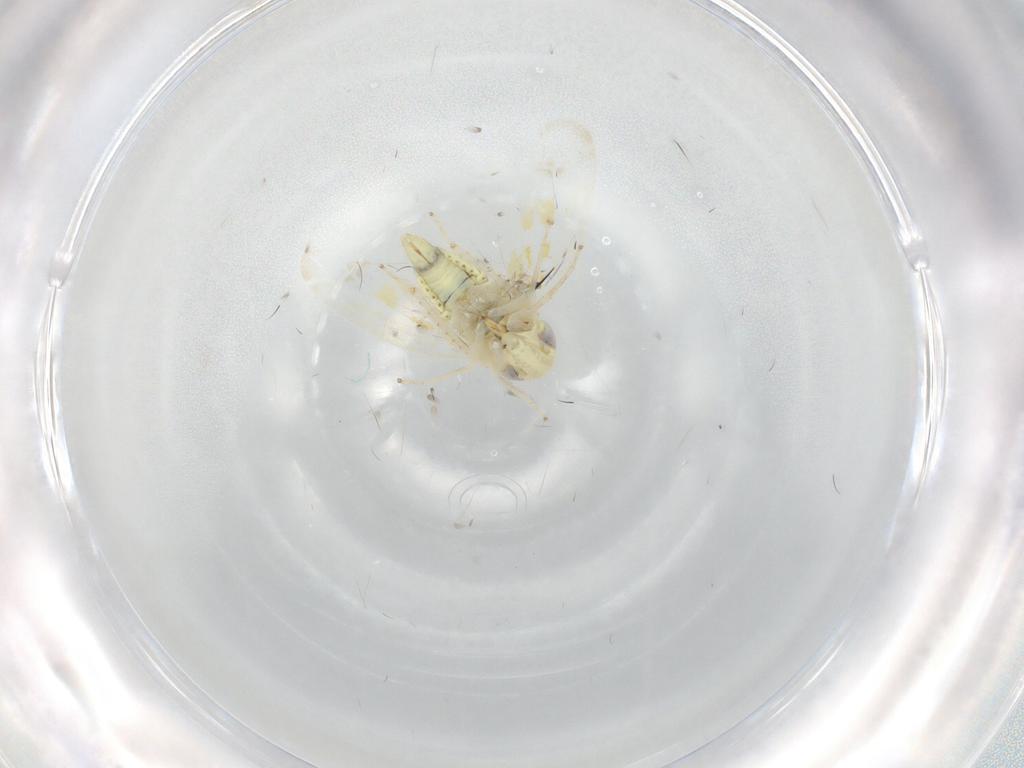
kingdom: Animalia
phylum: Arthropoda
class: Insecta
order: Hemiptera
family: Cicadellidae
